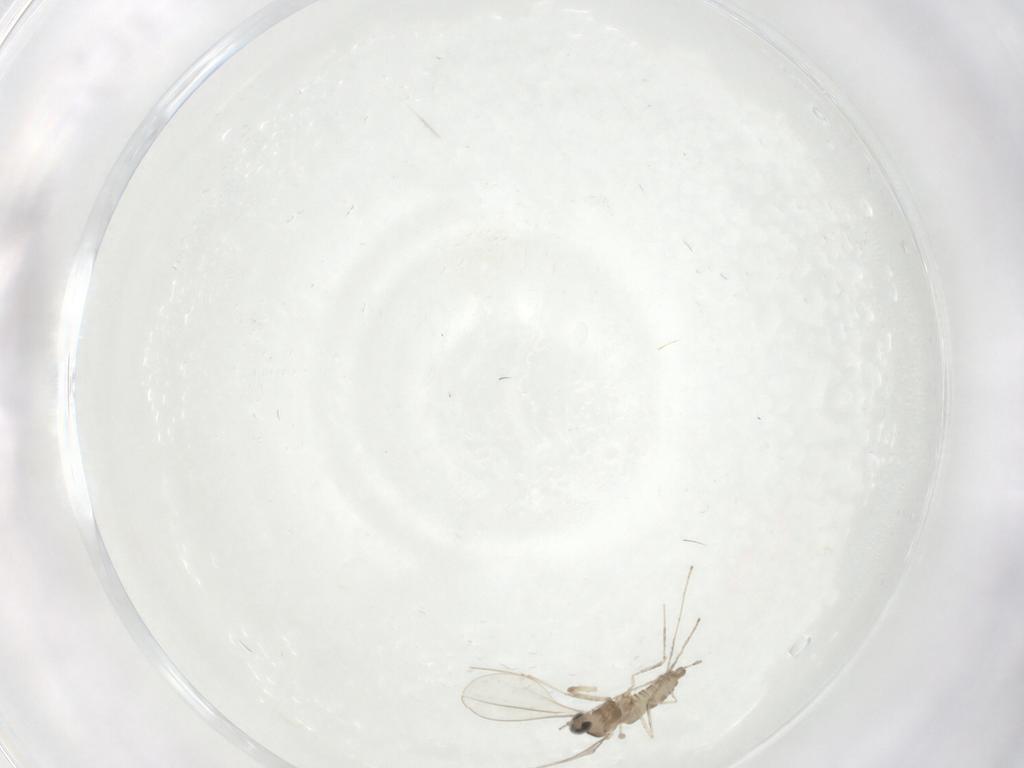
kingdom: Animalia
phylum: Arthropoda
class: Insecta
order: Diptera
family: Chironomidae
